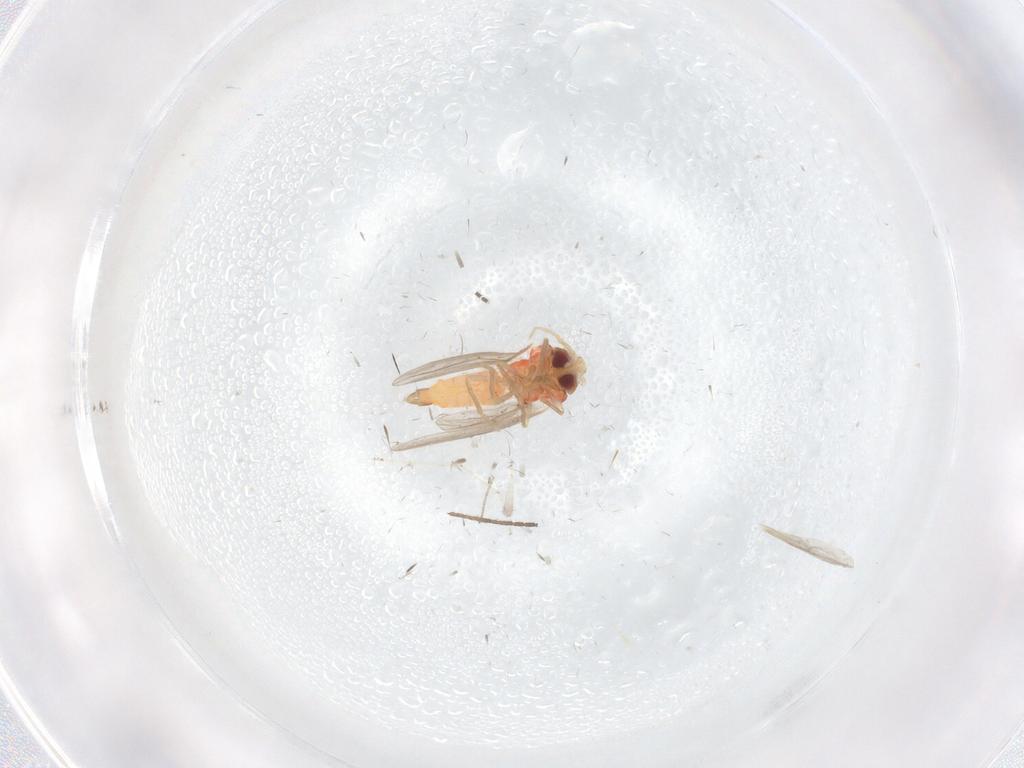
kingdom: Animalia
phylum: Arthropoda
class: Insecta
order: Hemiptera
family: Aleyrodidae
